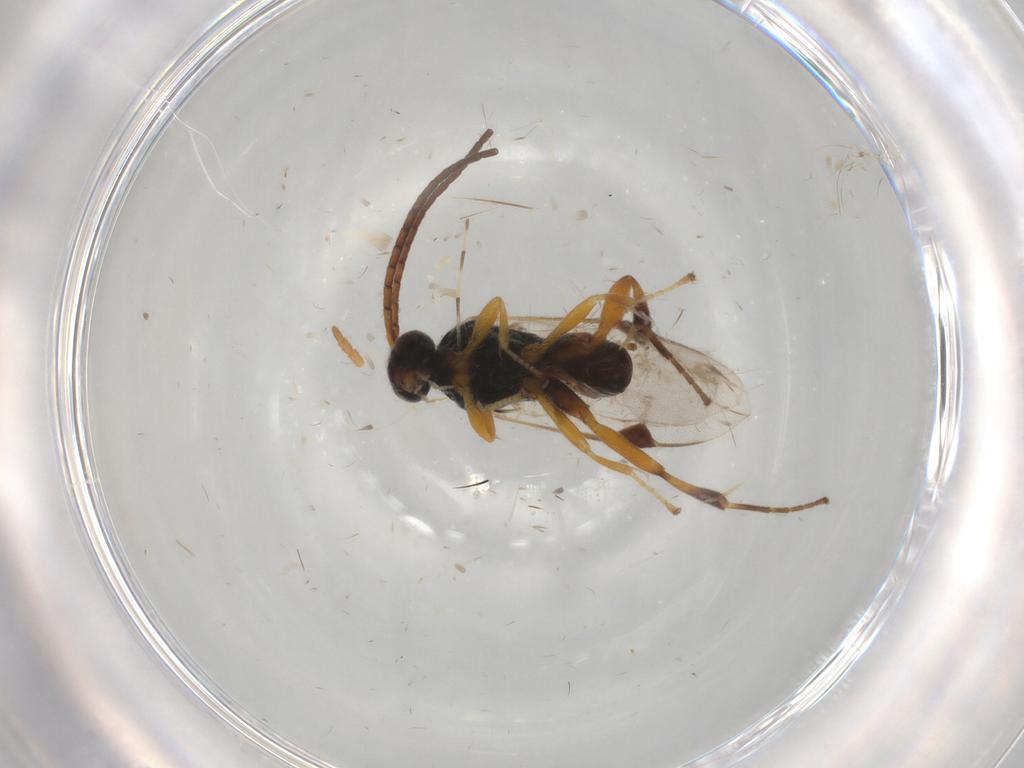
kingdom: Animalia
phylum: Arthropoda
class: Insecta
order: Hymenoptera
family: Braconidae
